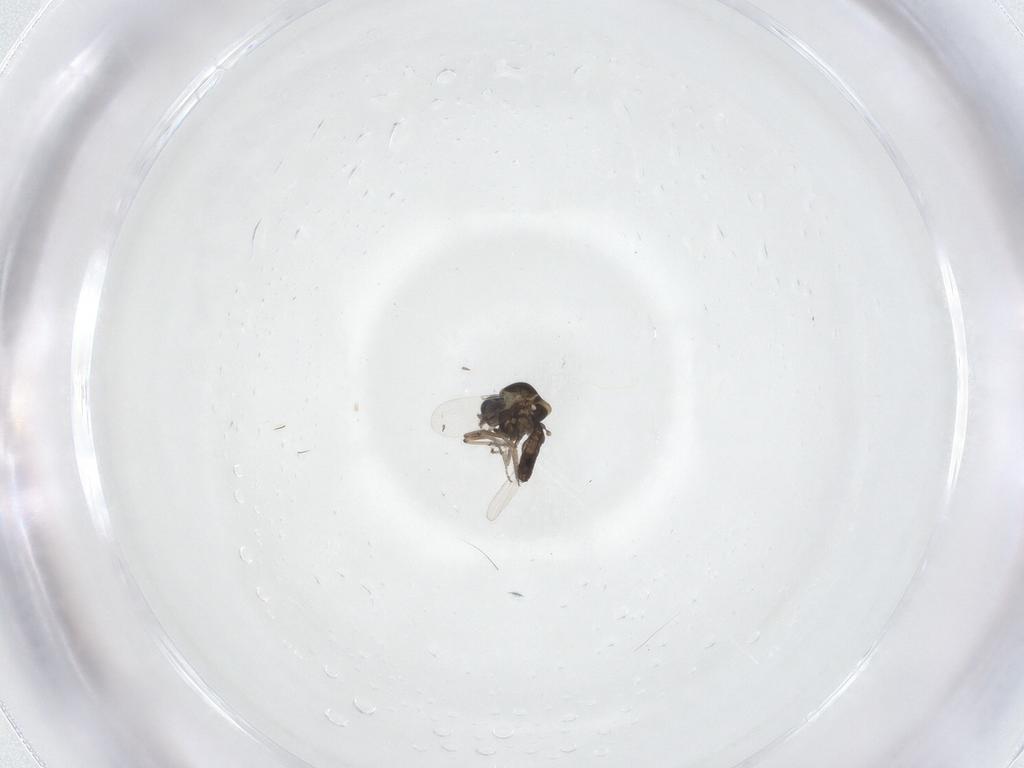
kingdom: Animalia
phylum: Arthropoda
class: Insecta
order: Diptera
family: Ceratopogonidae
